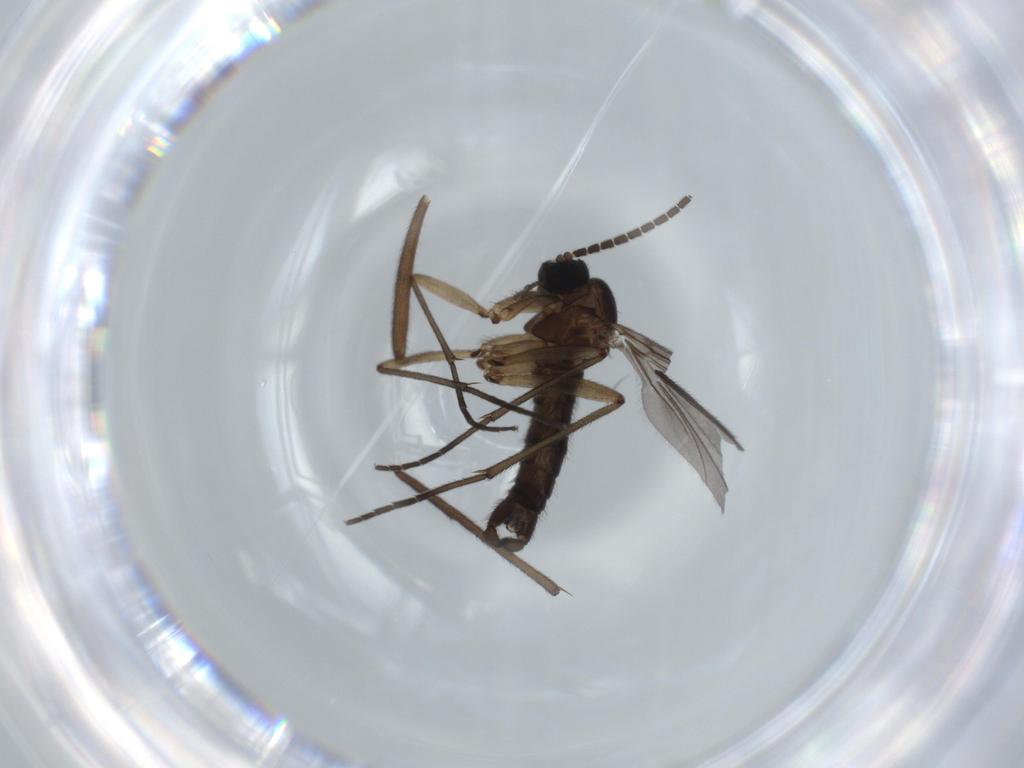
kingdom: Animalia
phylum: Arthropoda
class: Insecta
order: Diptera
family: Sciaridae
